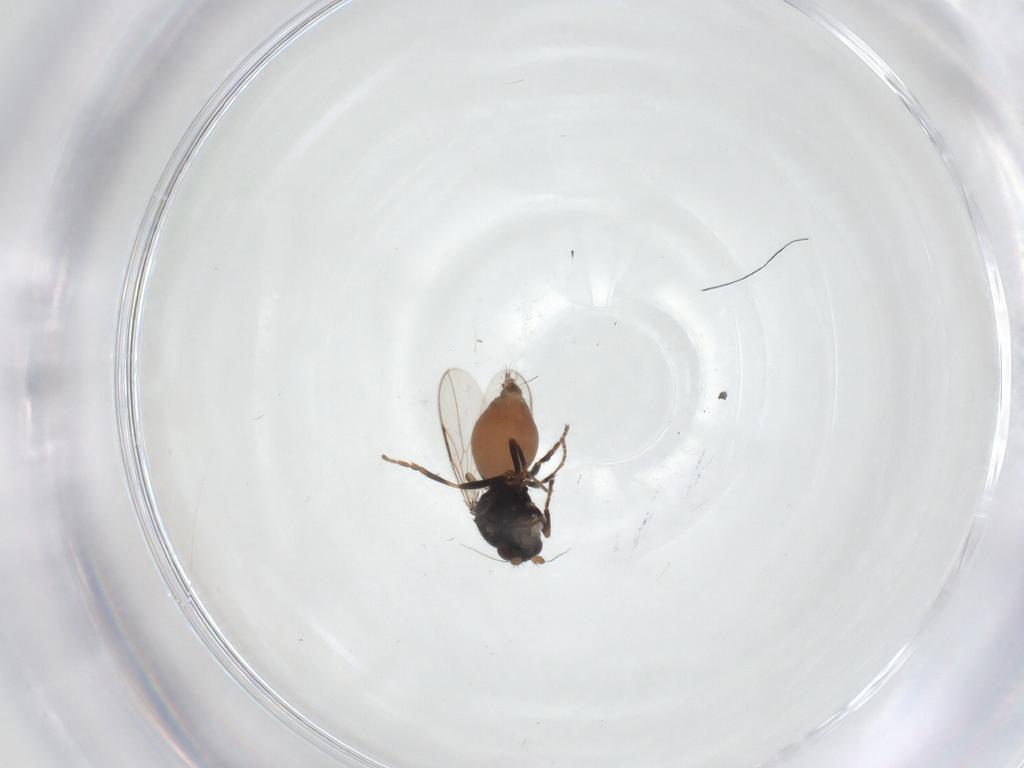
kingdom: Animalia
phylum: Arthropoda
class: Insecta
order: Diptera
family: Sphaeroceridae
